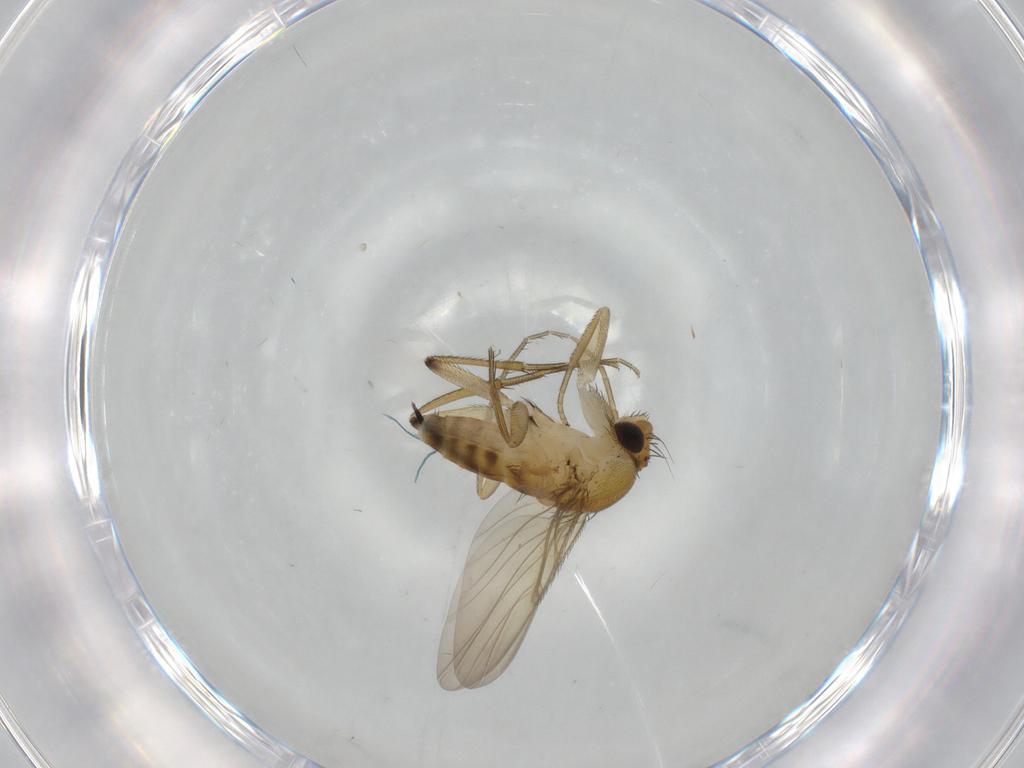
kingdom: Animalia
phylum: Arthropoda
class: Insecta
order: Diptera
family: Phoridae
